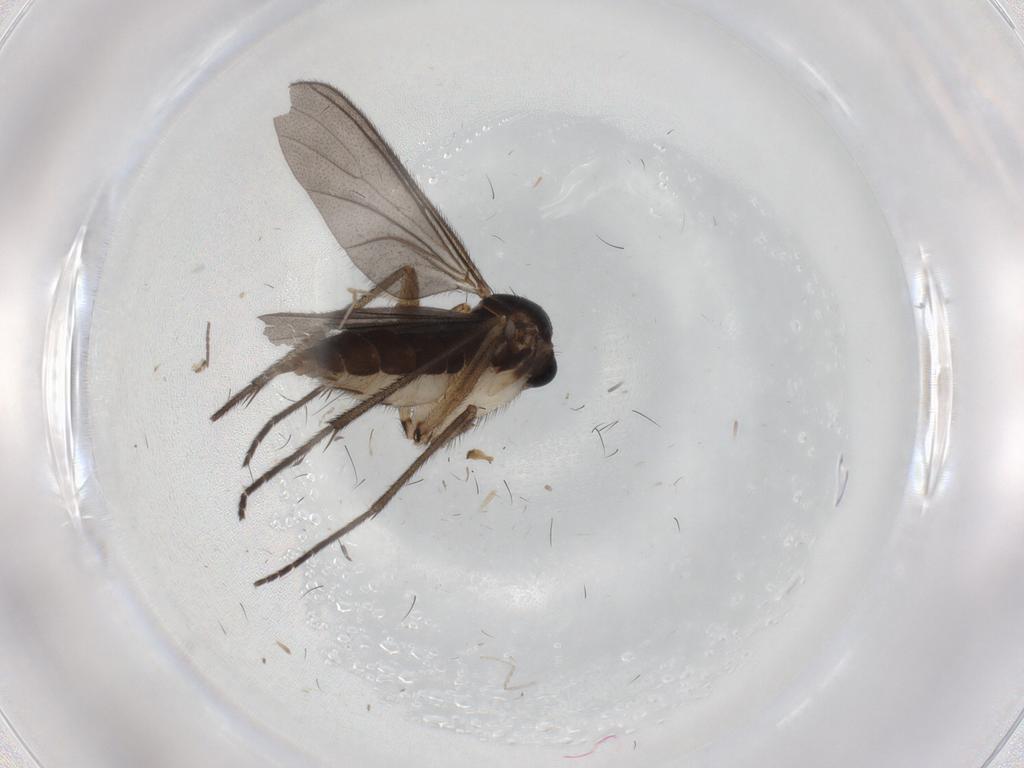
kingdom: Animalia
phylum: Arthropoda
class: Insecta
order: Diptera
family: Sciaridae
